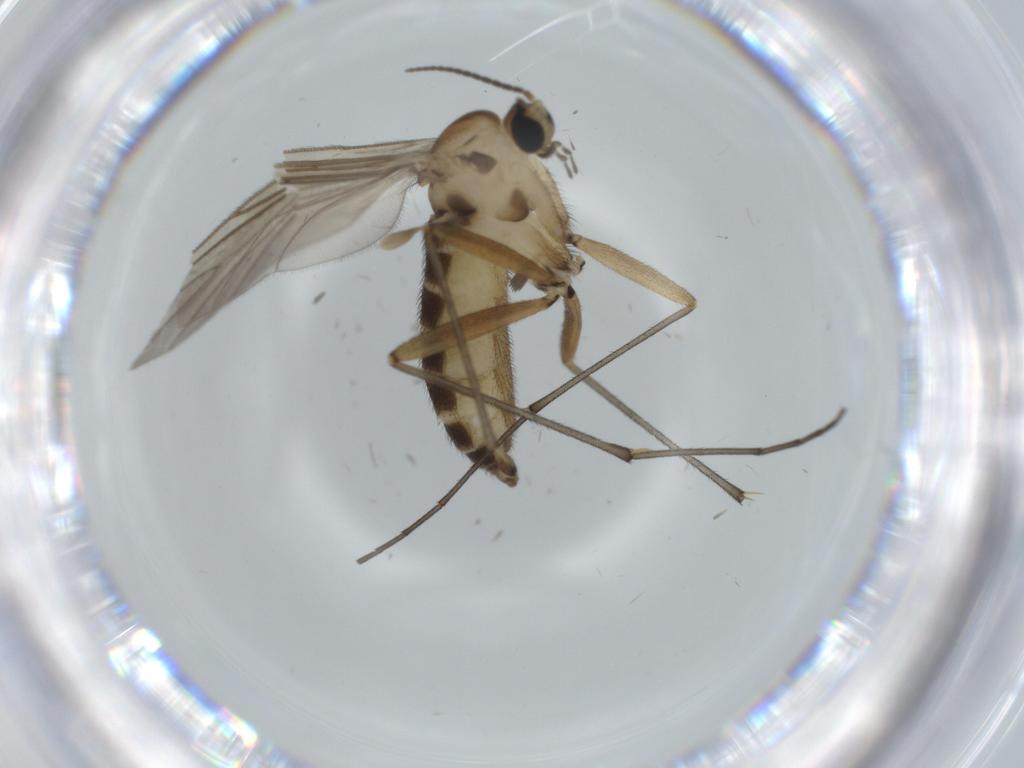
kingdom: Animalia
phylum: Arthropoda
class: Insecta
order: Diptera
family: Sciaridae
